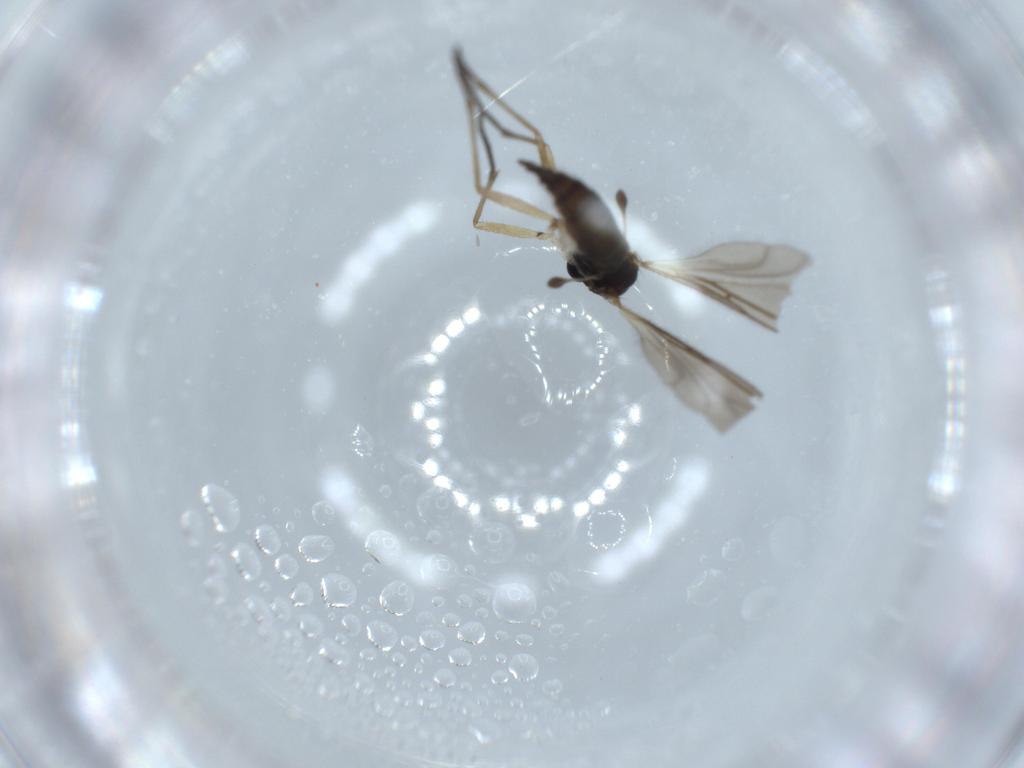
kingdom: Animalia
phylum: Arthropoda
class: Insecta
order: Diptera
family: Sciaridae
